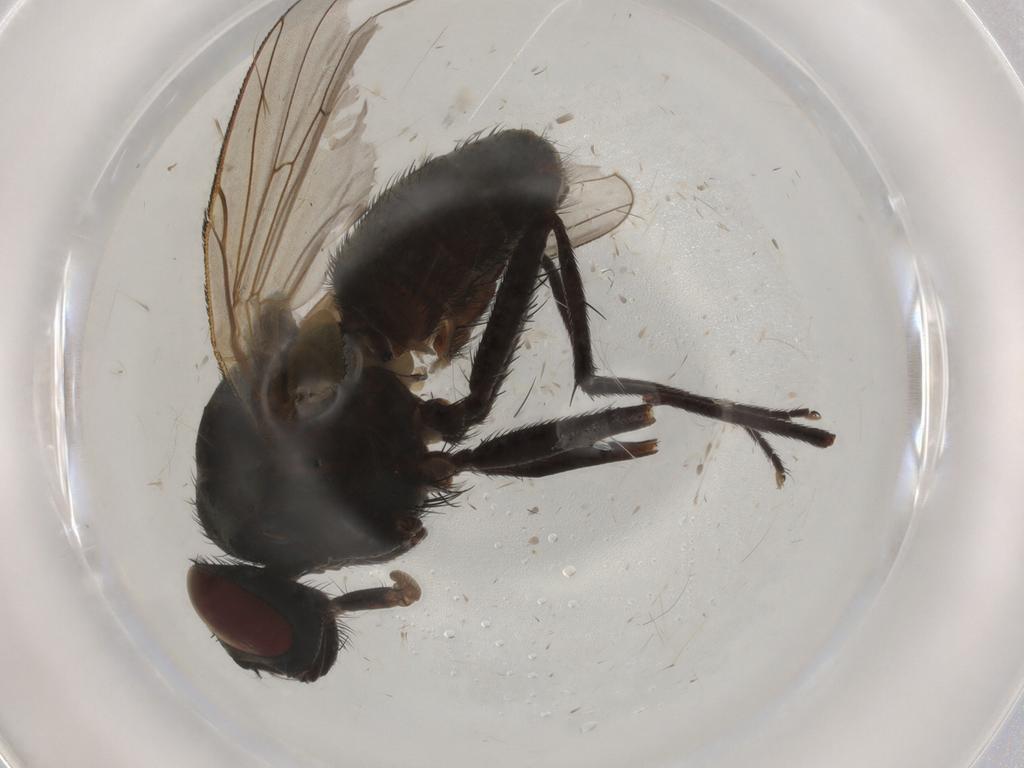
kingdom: Animalia
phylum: Arthropoda
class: Insecta
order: Diptera
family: Muscidae
